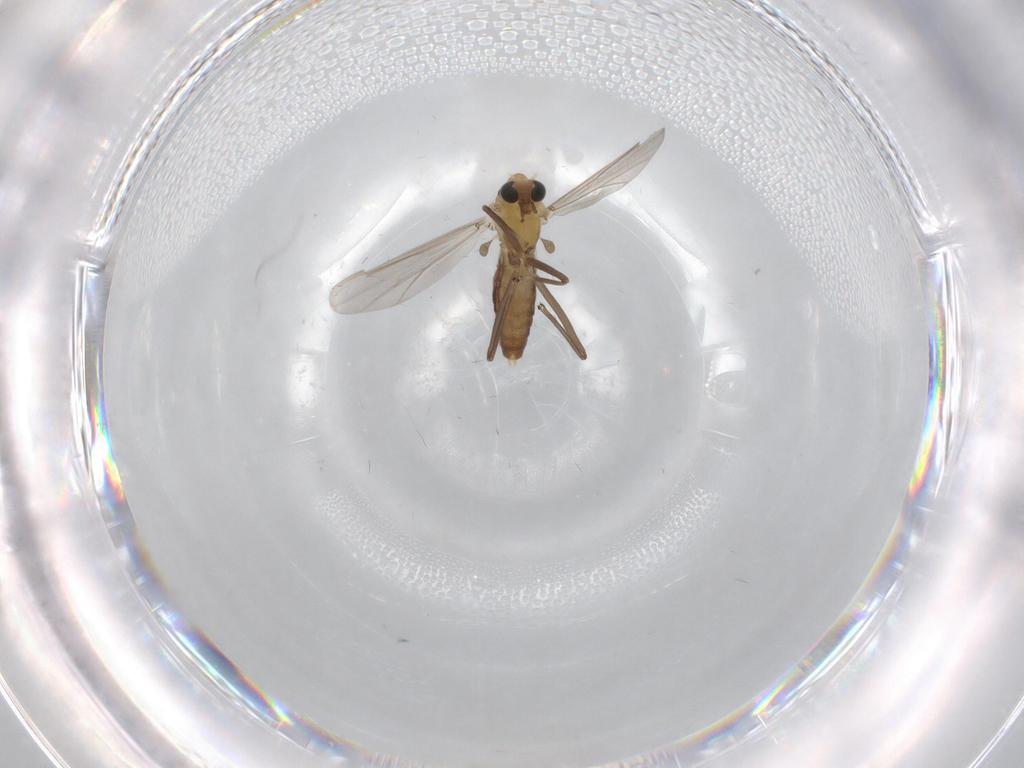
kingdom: Animalia
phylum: Arthropoda
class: Insecta
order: Diptera
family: Chironomidae
